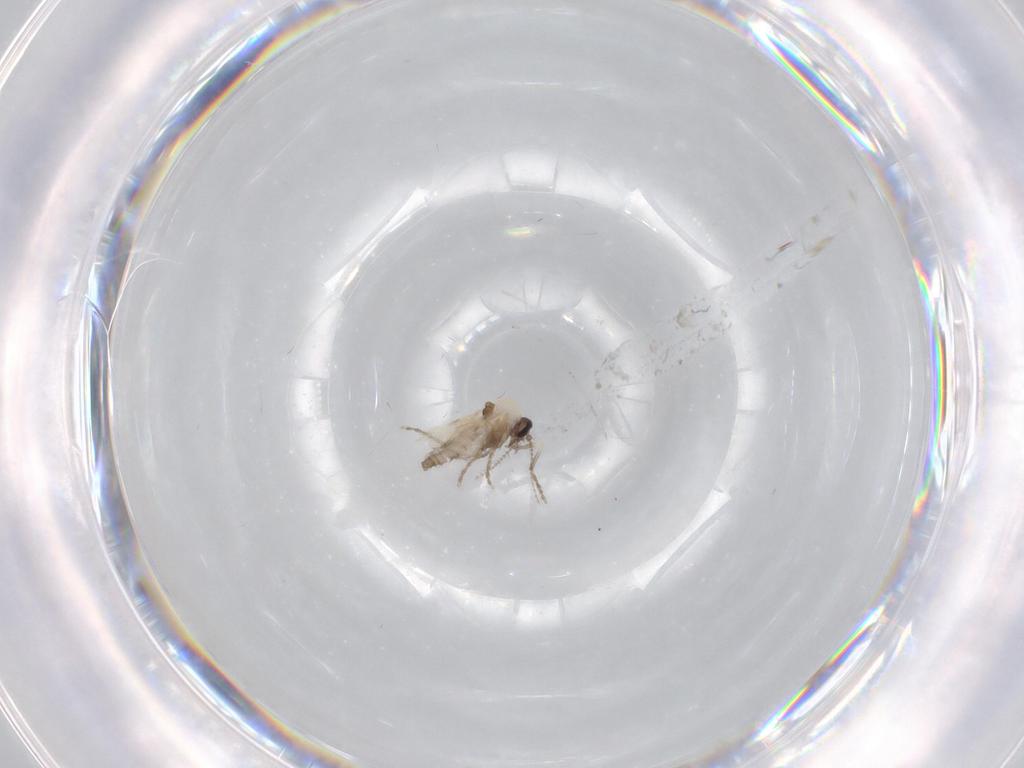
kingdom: Animalia
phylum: Arthropoda
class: Insecta
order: Diptera
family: Ceratopogonidae
